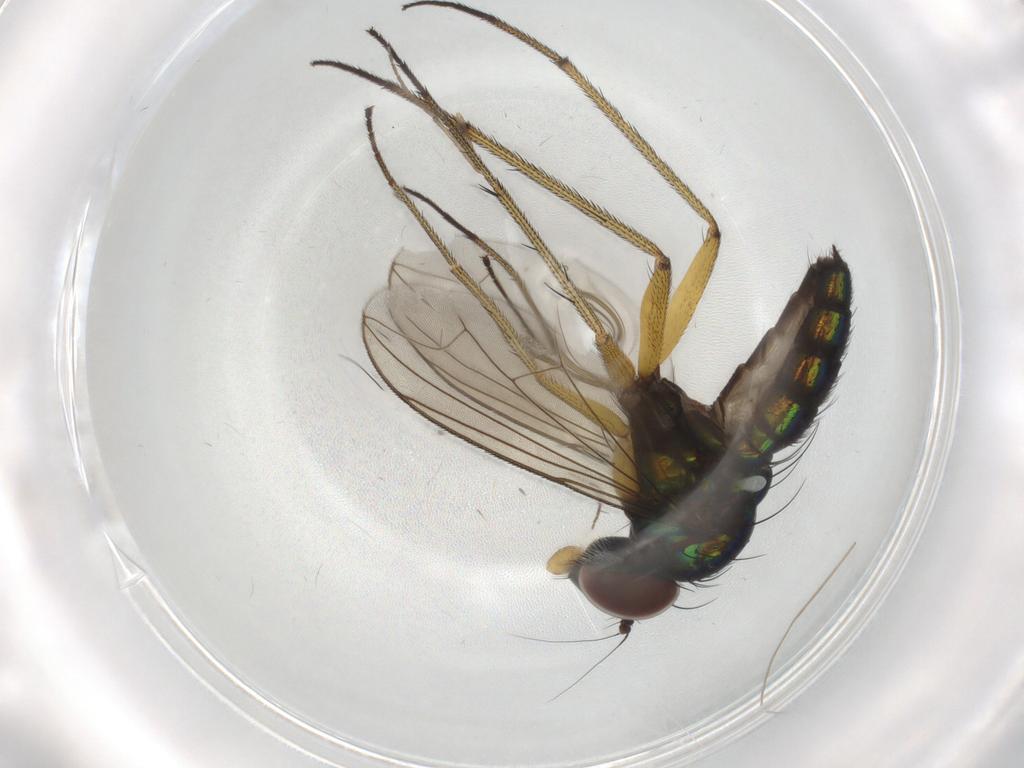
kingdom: Animalia
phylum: Arthropoda
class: Insecta
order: Diptera
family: Dolichopodidae
